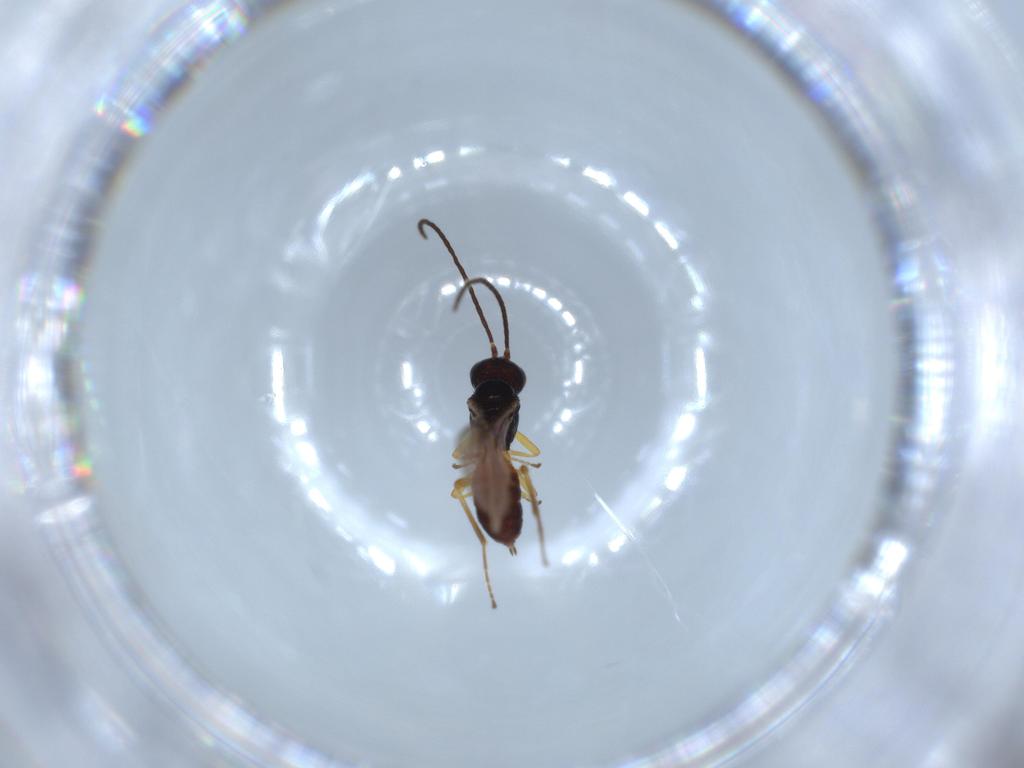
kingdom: Animalia
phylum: Arthropoda
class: Insecta
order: Hymenoptera
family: Braconidae
